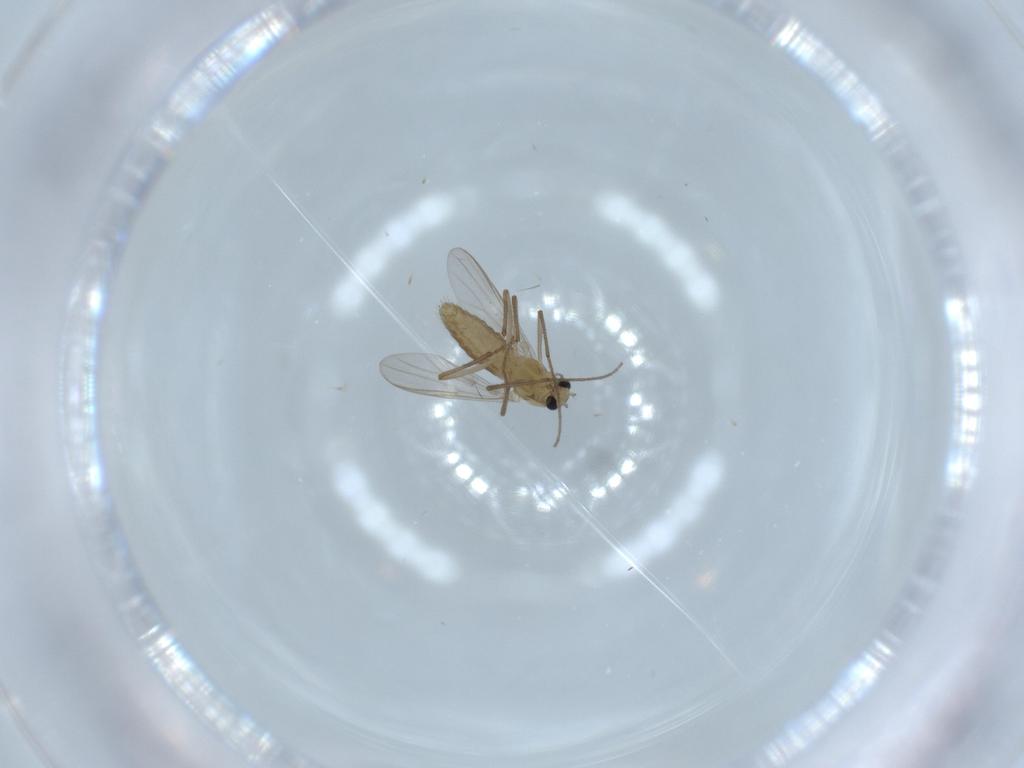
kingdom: Animalia
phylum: Arthropoda
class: Insecta
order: Diptera
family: Chironomidae
